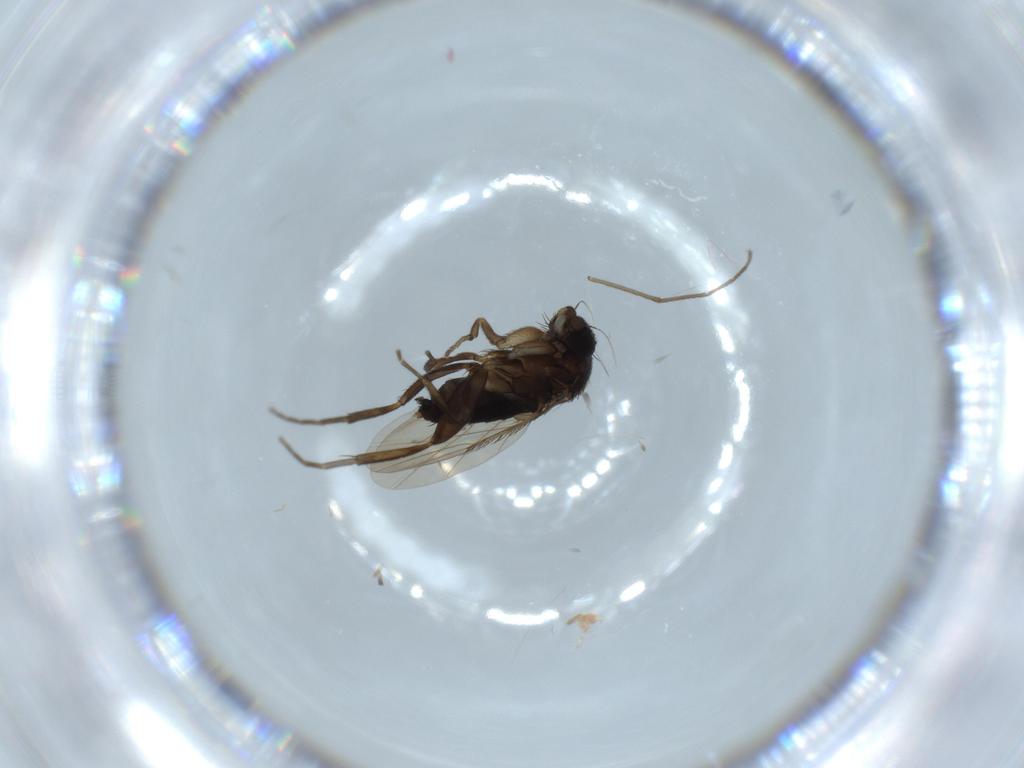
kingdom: Animalia
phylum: Arthropoda
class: Insecta
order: Diptera
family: Phoridae
